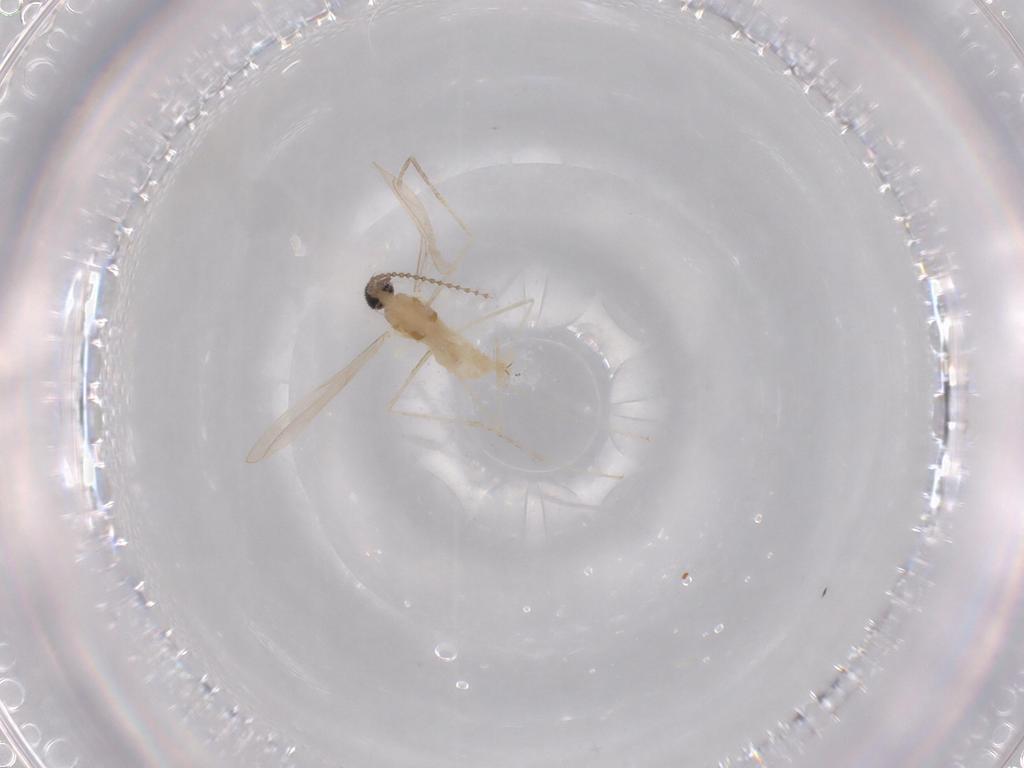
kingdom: Animalia
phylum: Arthropoda
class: Insecta
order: Diptera
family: Cecidomyiidae
